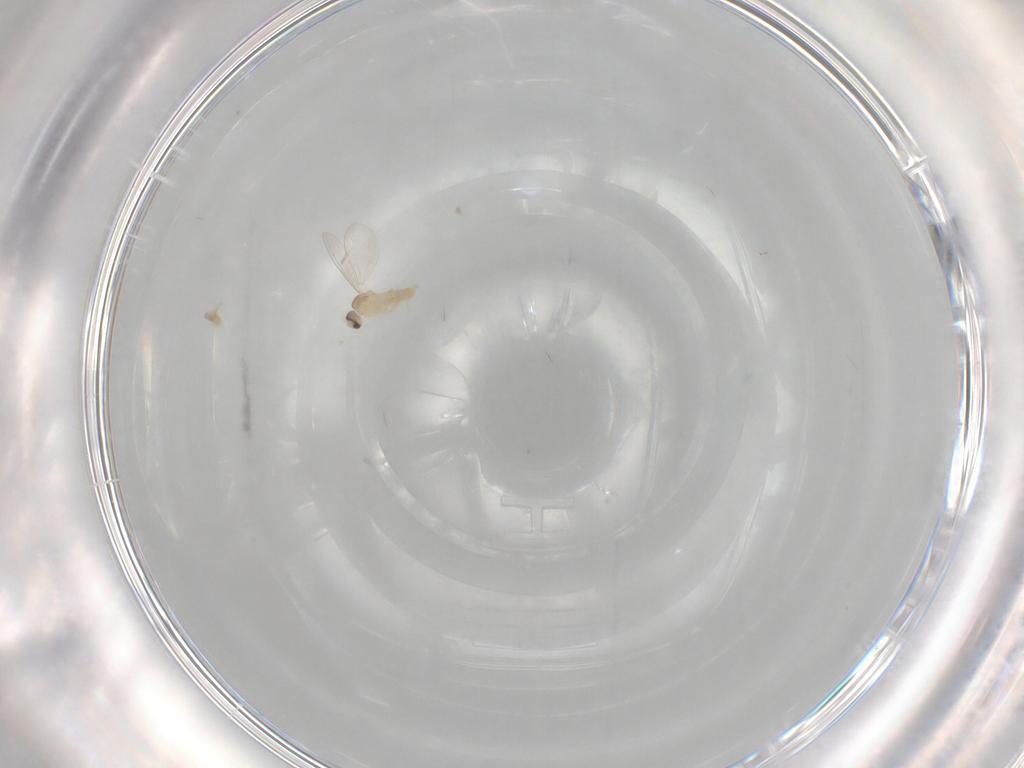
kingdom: Animalia
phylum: Arthropoda
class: Insecta
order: Diptera
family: Cecidomyiidae
